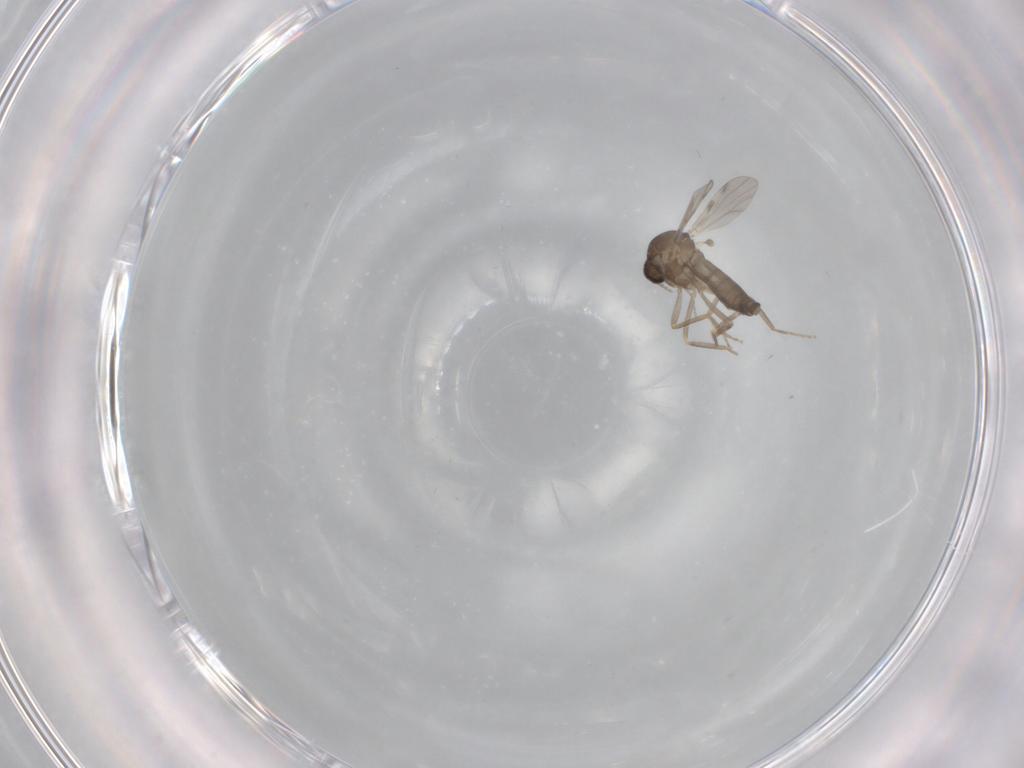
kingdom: Animalia
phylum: Arthropoda
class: Insecta
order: Diptera
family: Ceratopogonidae
